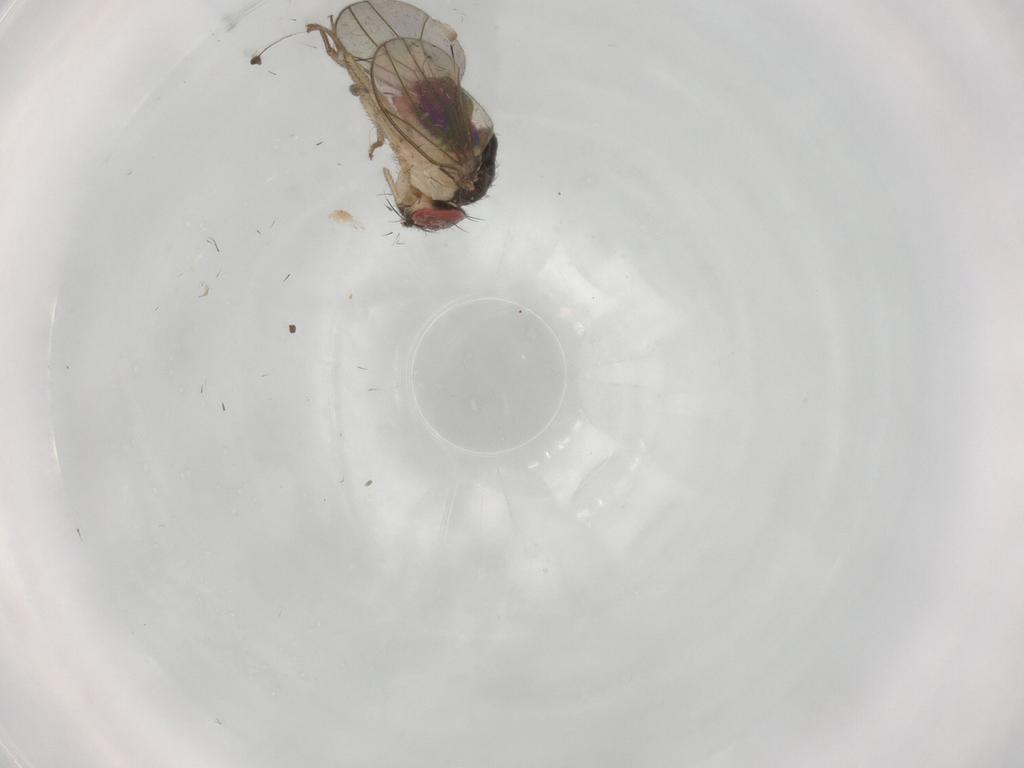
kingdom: Animalia
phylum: Arthropoda
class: Insecta
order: Diptera
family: Drosophilidae
